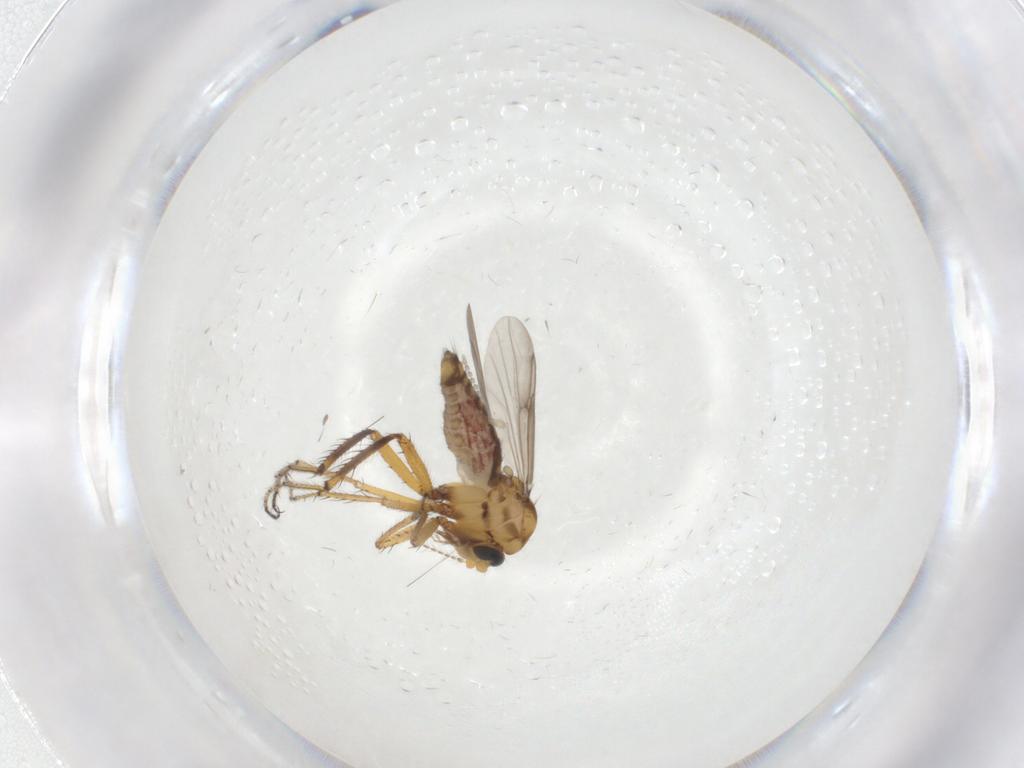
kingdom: Animalia
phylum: Arthropoda
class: Insecta
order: Diptera
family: Ceratopogonidae
